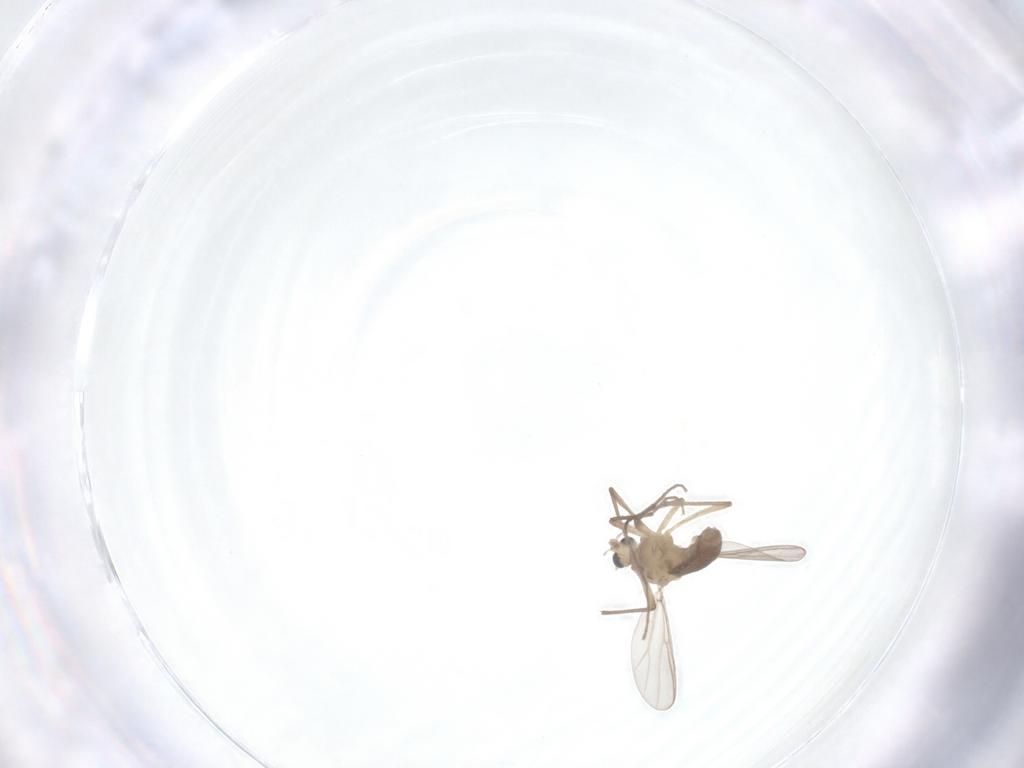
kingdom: Animalia
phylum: Arthropoda
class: Insecta
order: Diptera
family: Chironomidae
